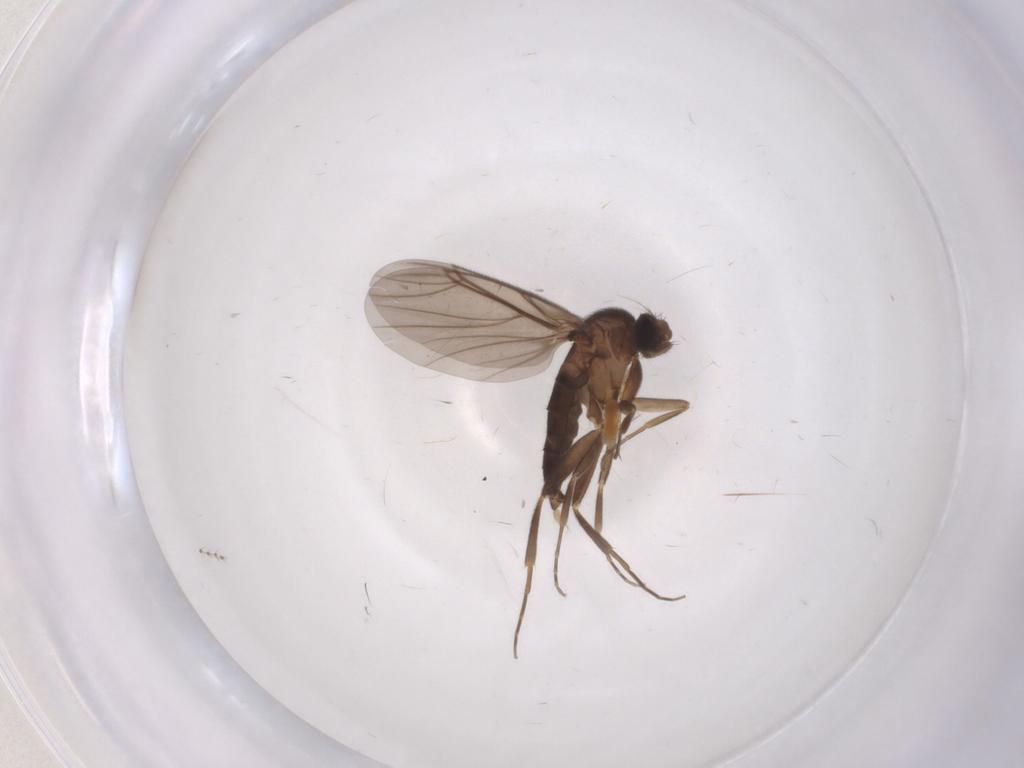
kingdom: Animalia
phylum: Arthropoda
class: Insecta
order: Diptera
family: Phoridae
